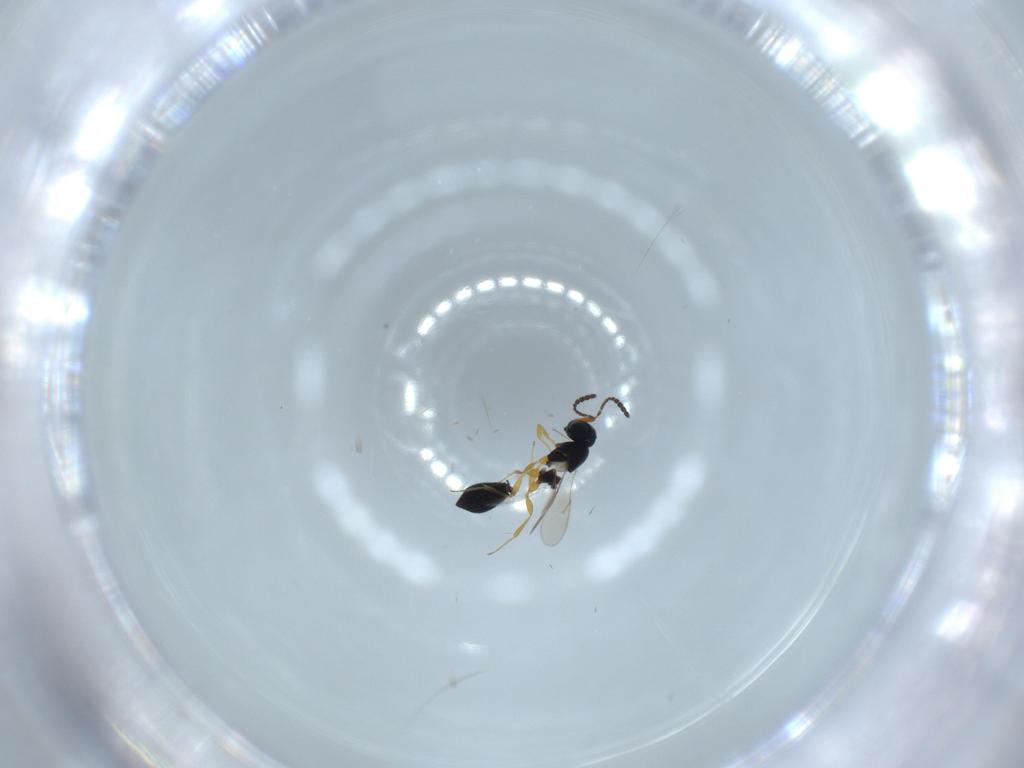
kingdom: Animalia
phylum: Arthropoda
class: Insecta
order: Hymenoptera
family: Scelionidae
